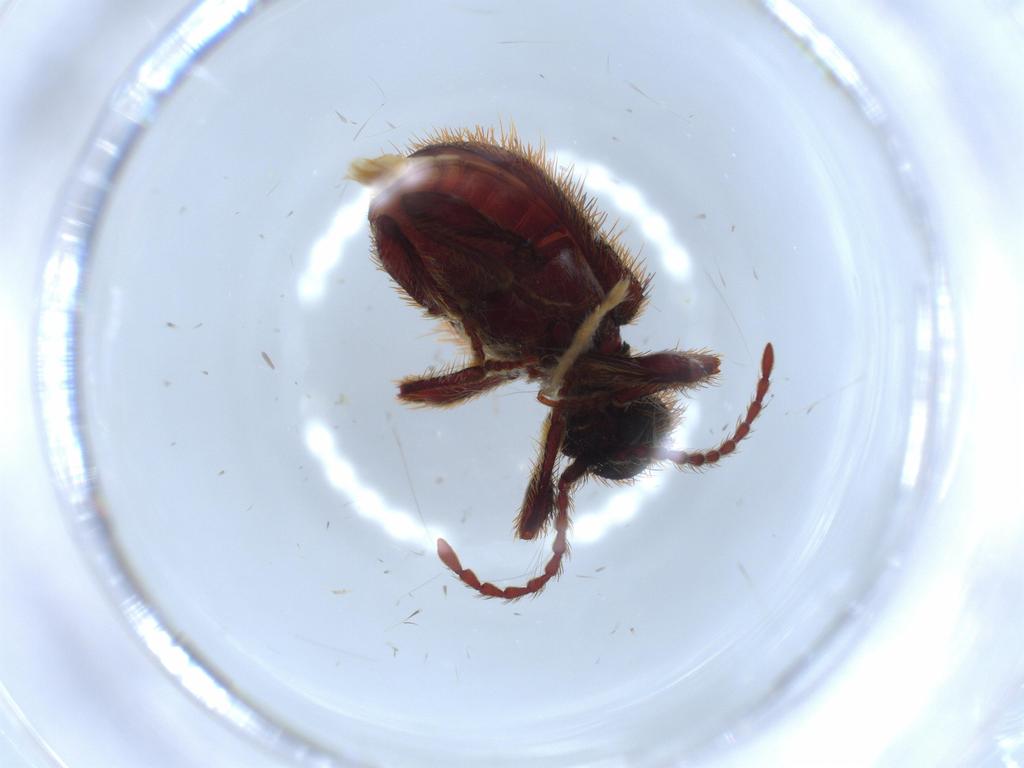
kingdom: Animalia
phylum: Arthropoda
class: Insecta
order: Coleoptera
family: Ptinidae
